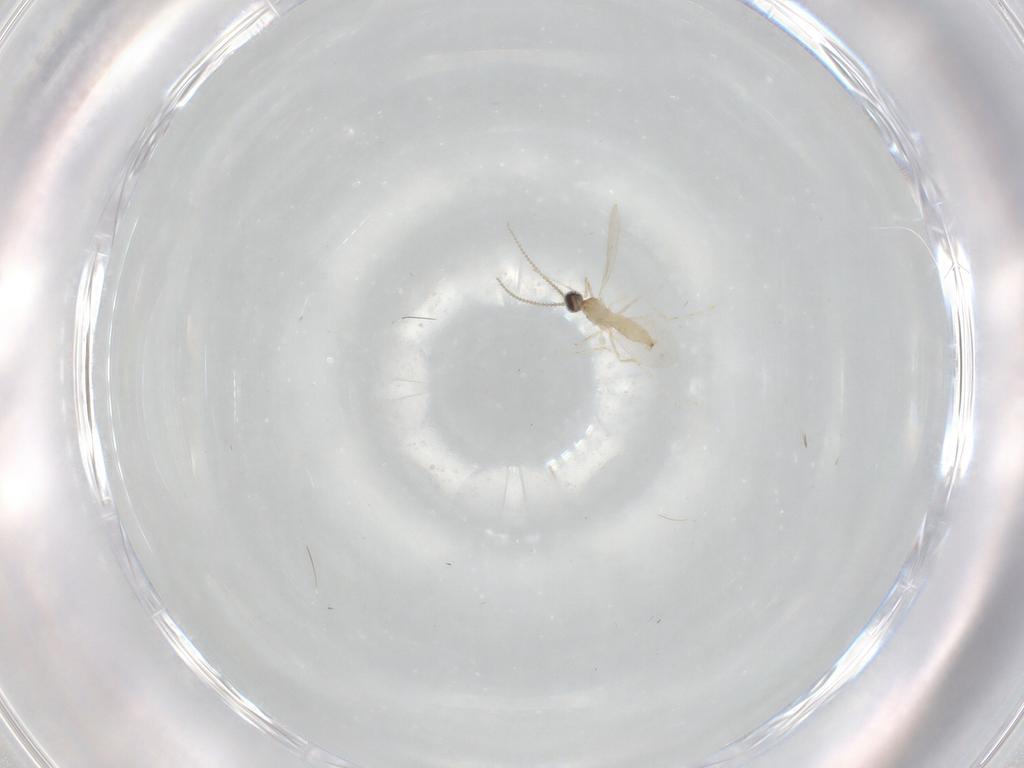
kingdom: Animalia
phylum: Arthropoda
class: Insecta
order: Diptera
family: Cecidomyiidae
